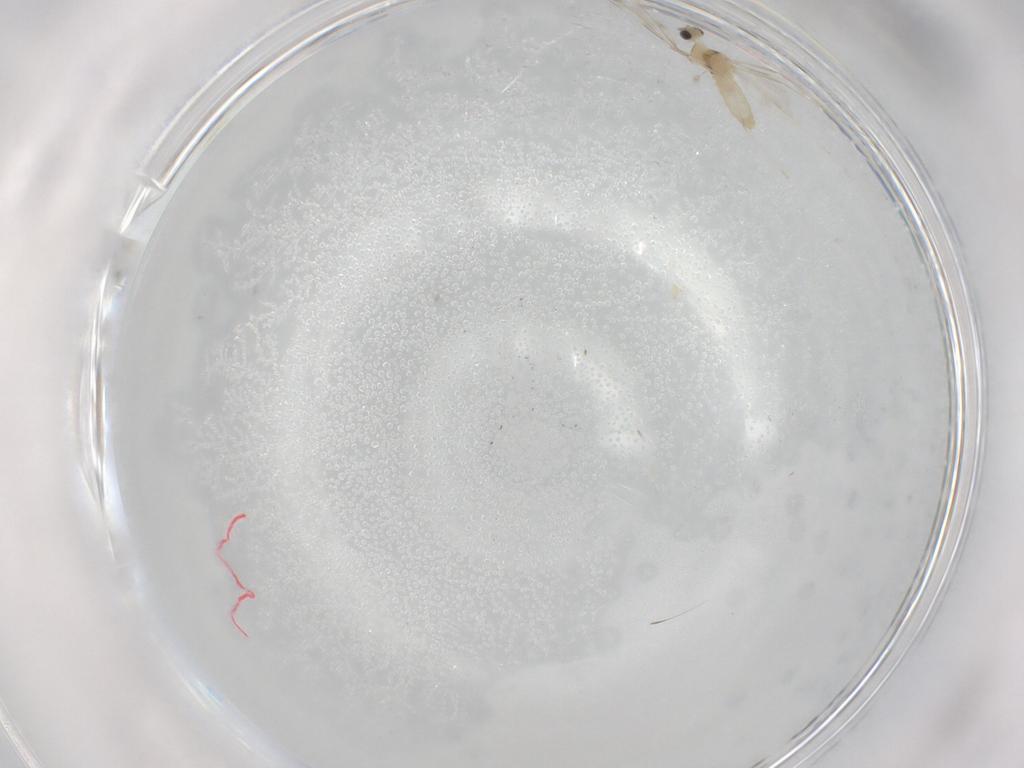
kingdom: Animalia
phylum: Arthropoda
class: Insecta
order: Diptera
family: Cecidomyiidae
